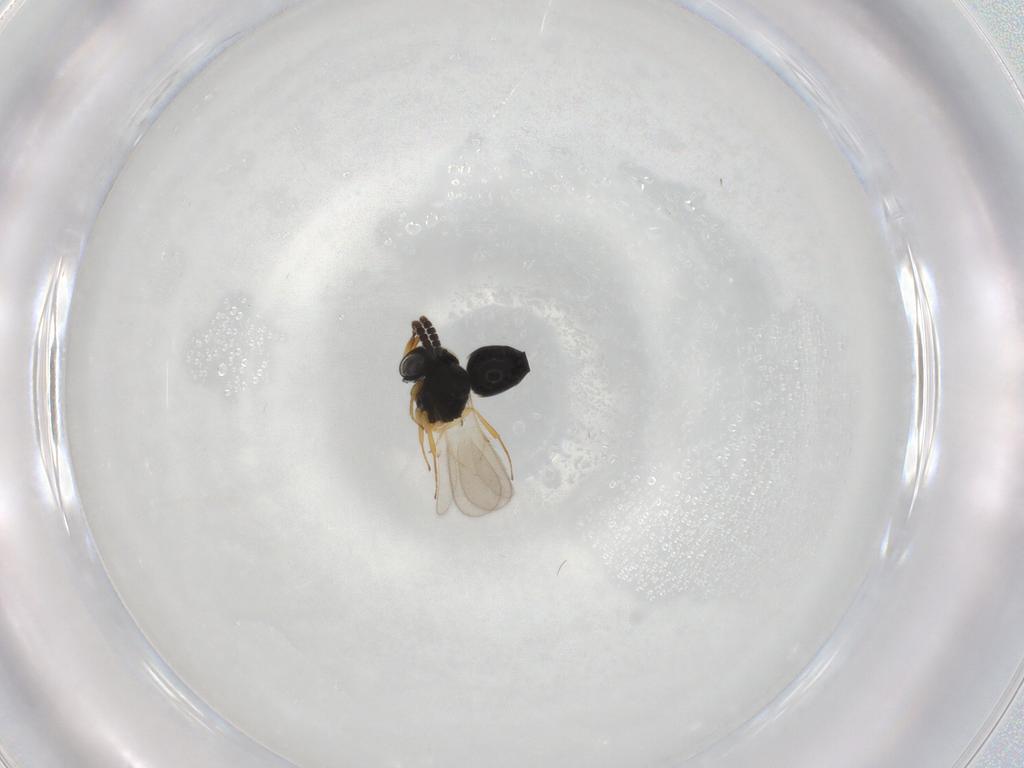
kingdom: Animalia
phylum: Arthropoda
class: Insecta
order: Hymenoptera
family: Scelionidae
